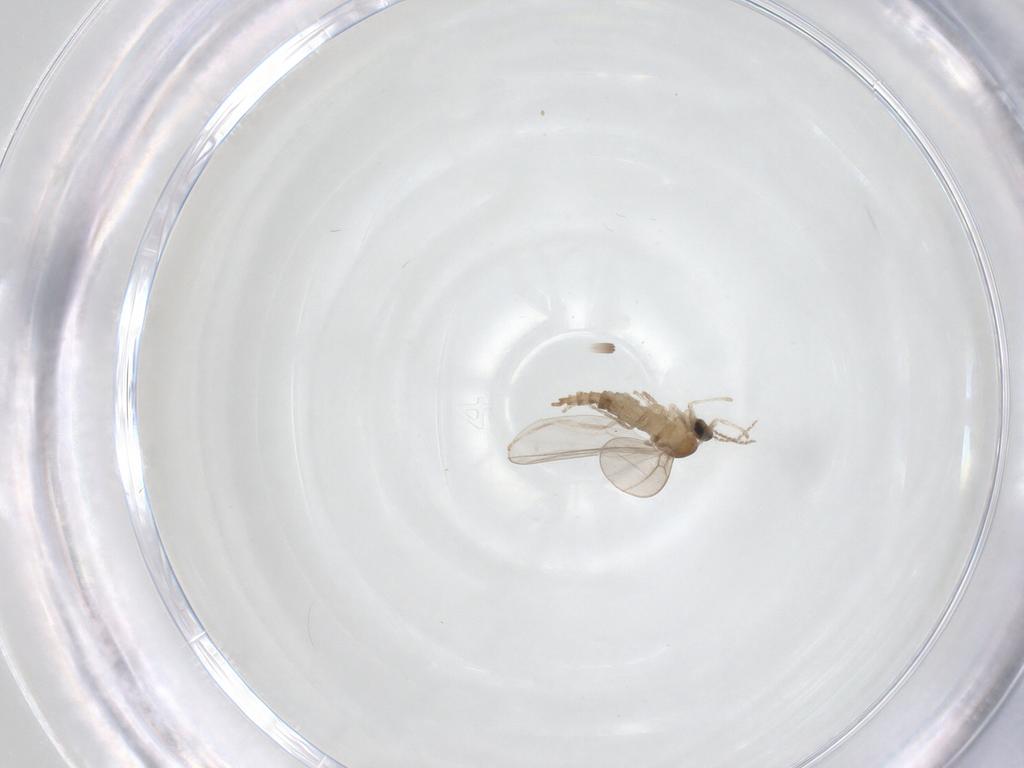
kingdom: Animalia
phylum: Arthropoda
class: Insecta
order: Diptera
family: Cecidomyiidae
